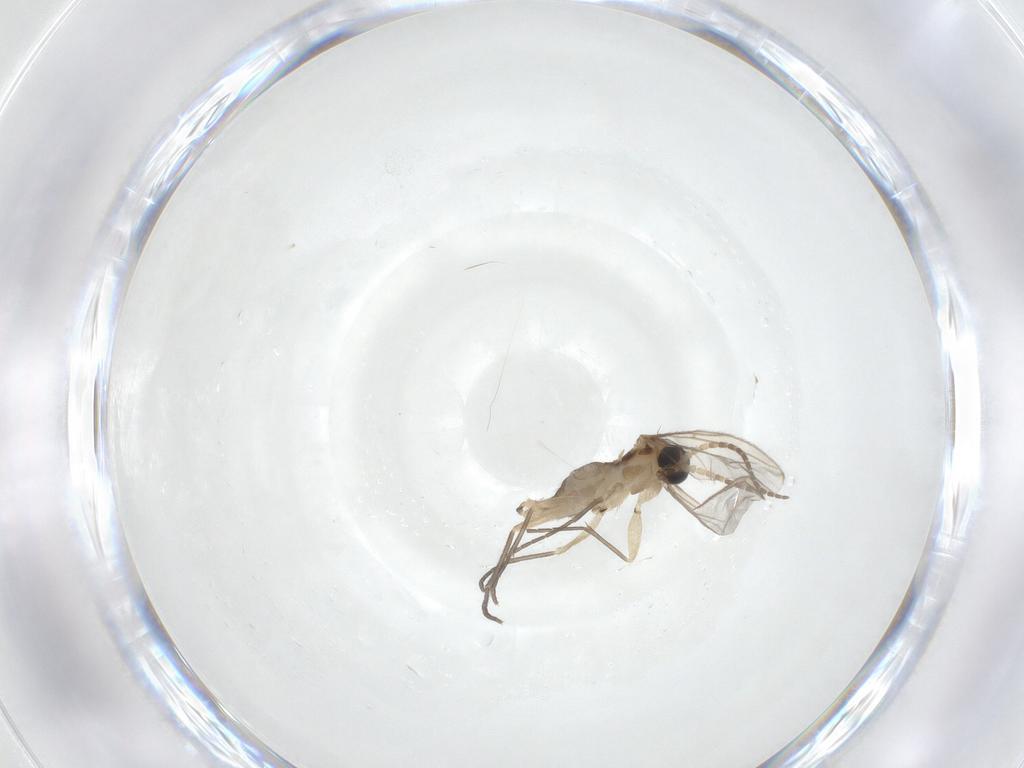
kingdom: Animalia
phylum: Arthropoda
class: Insecta
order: Diptera
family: Sciaridae
